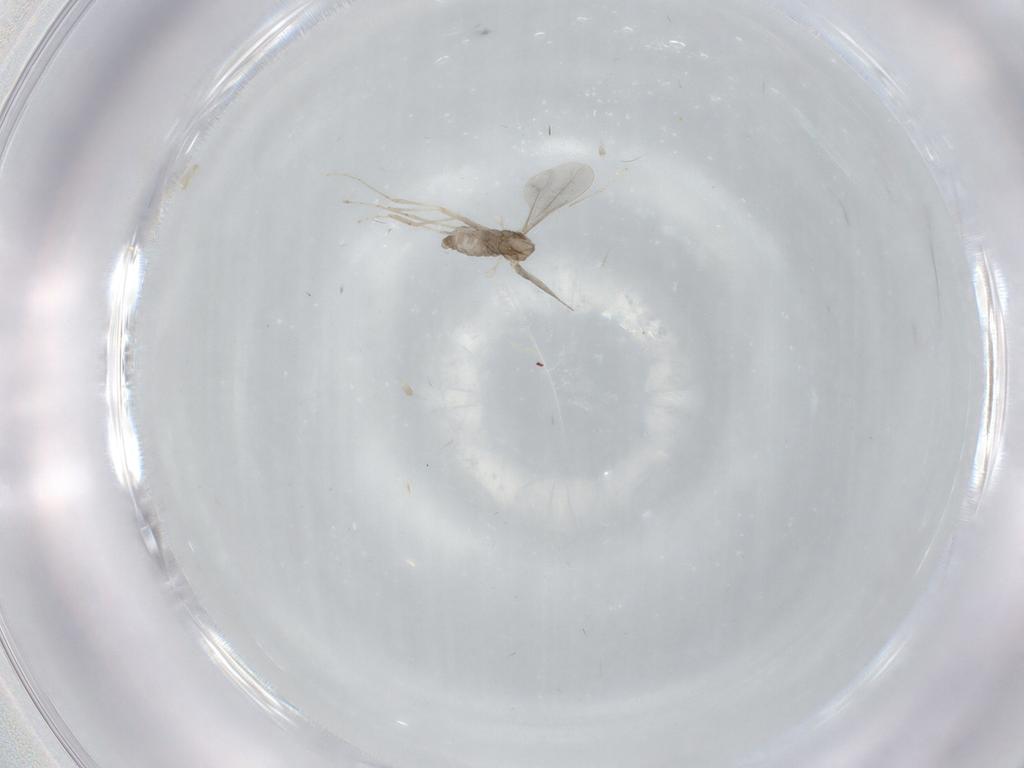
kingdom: Animalia
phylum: Arthropoda
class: Insecta
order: Diptera
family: Cecidomyiidae
